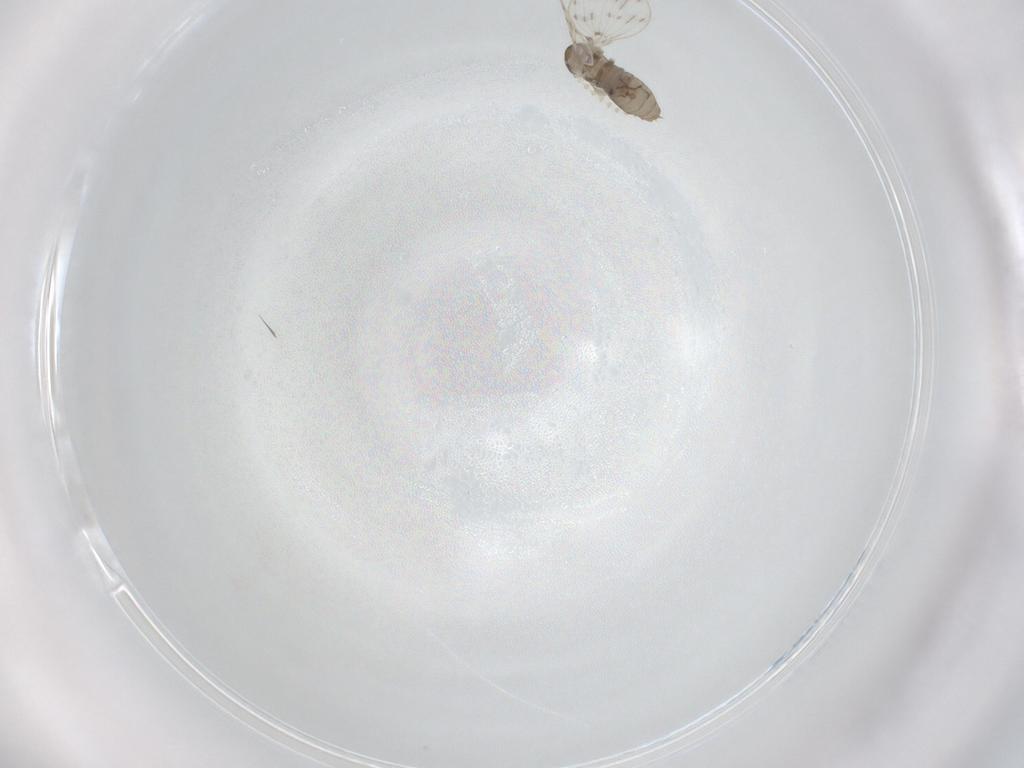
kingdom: Animalia
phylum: Arthropoda
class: Insecta
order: Diptera
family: Psychodidae
